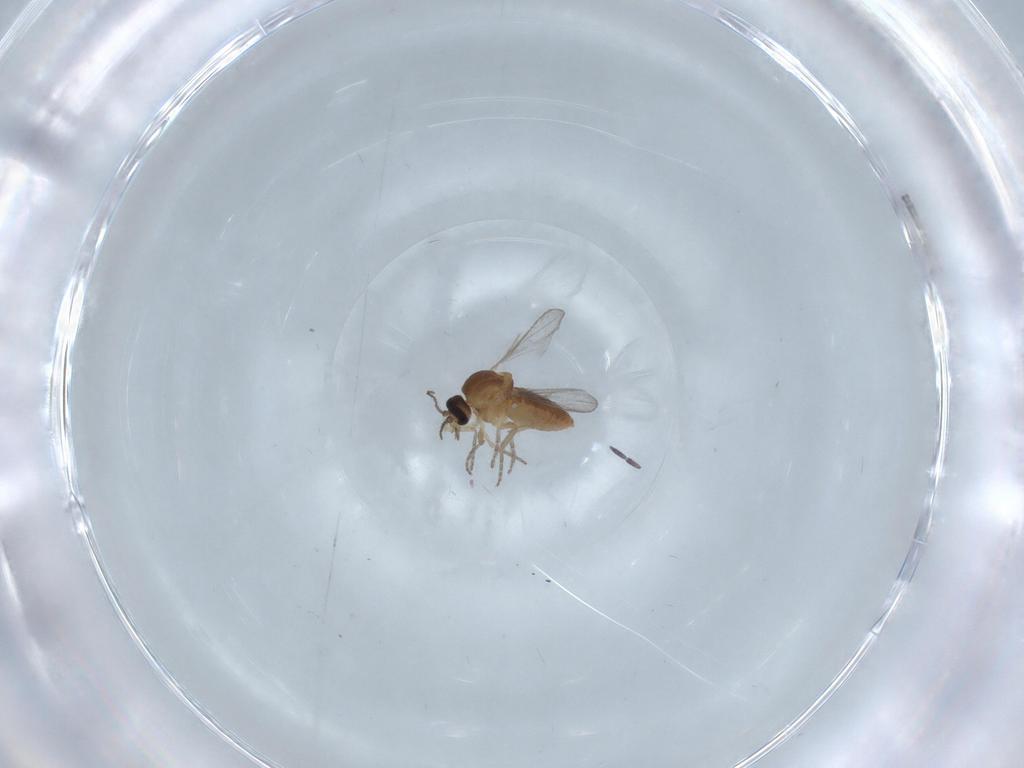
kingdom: Animalia
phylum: Arthropoda
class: Insecta
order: Diptera
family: Ceratopogonidae
